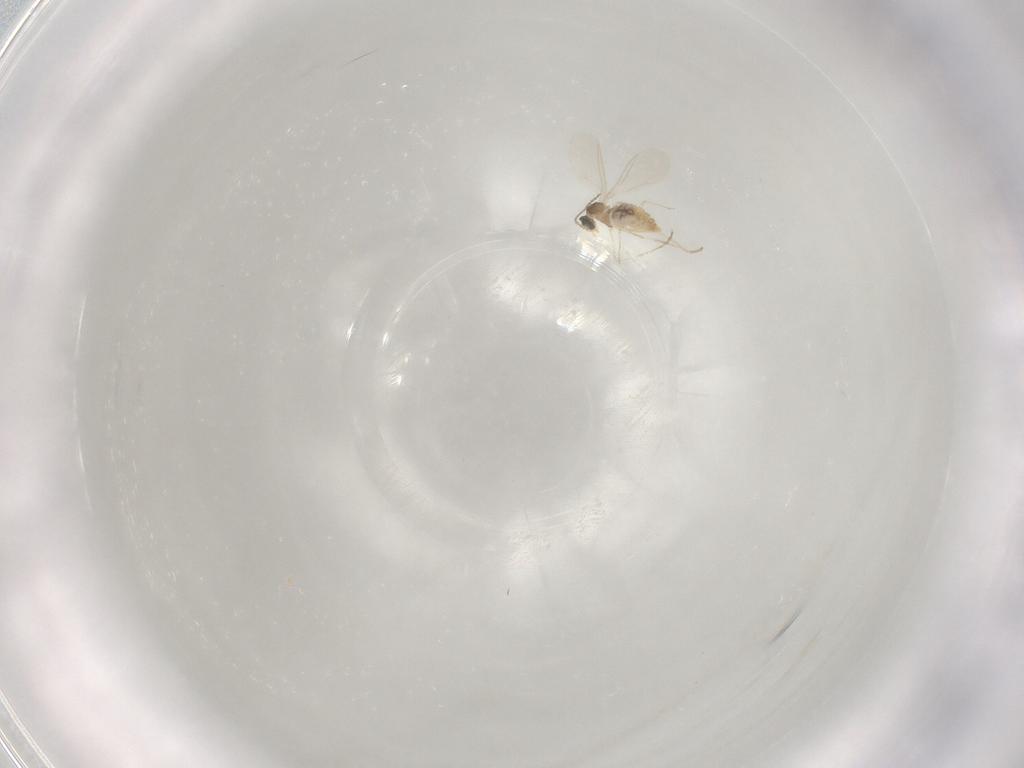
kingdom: Animalia
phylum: Arthropoda
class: Insecta
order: Diptera
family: Cecidomyiidae
